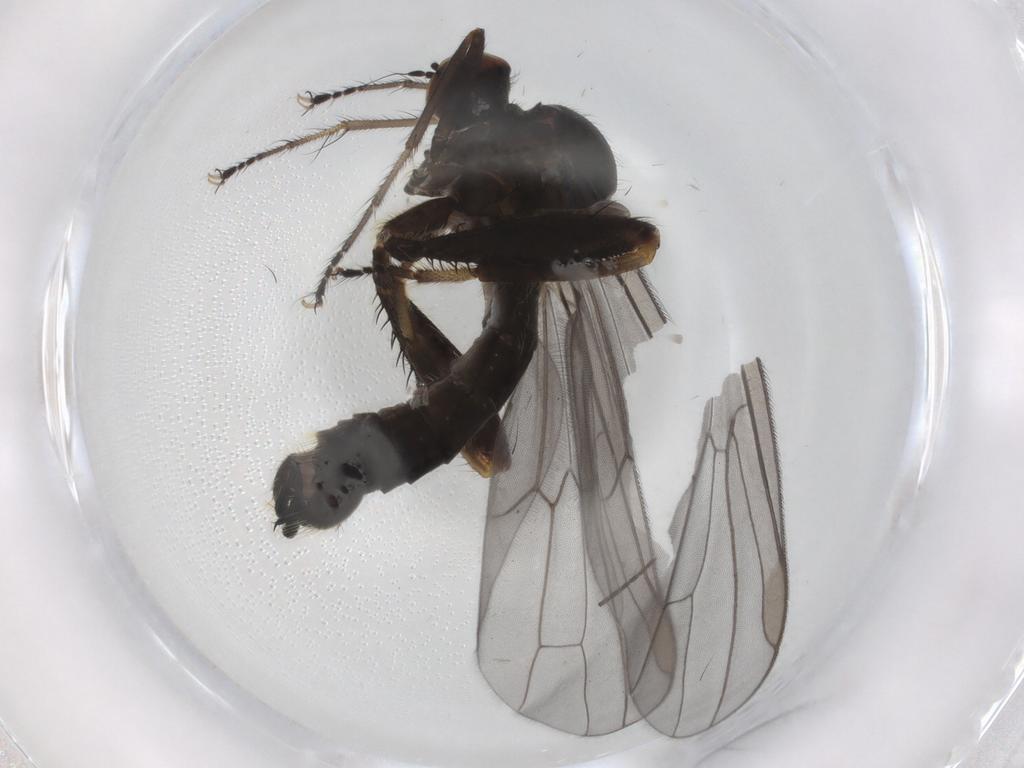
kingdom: Animalia
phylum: Arthropoda
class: Insecta
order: Diptera
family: Hybotidae
